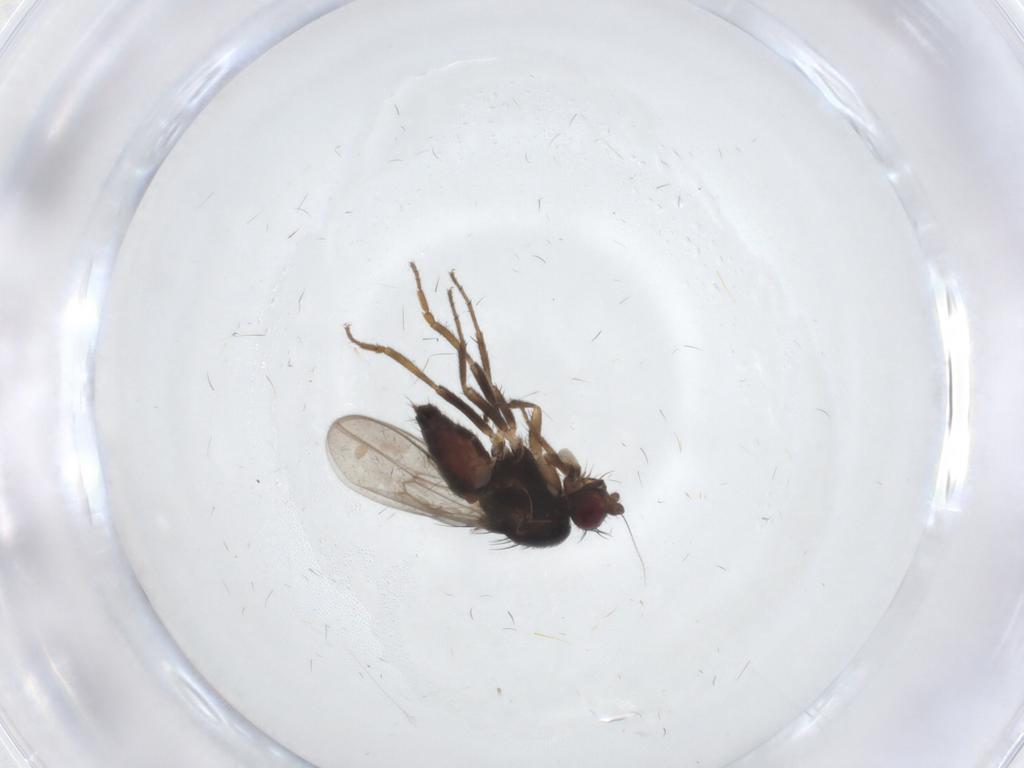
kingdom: Animalia
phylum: Arthropoda
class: Insecta
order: Diptera
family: Sphaeroceridae
